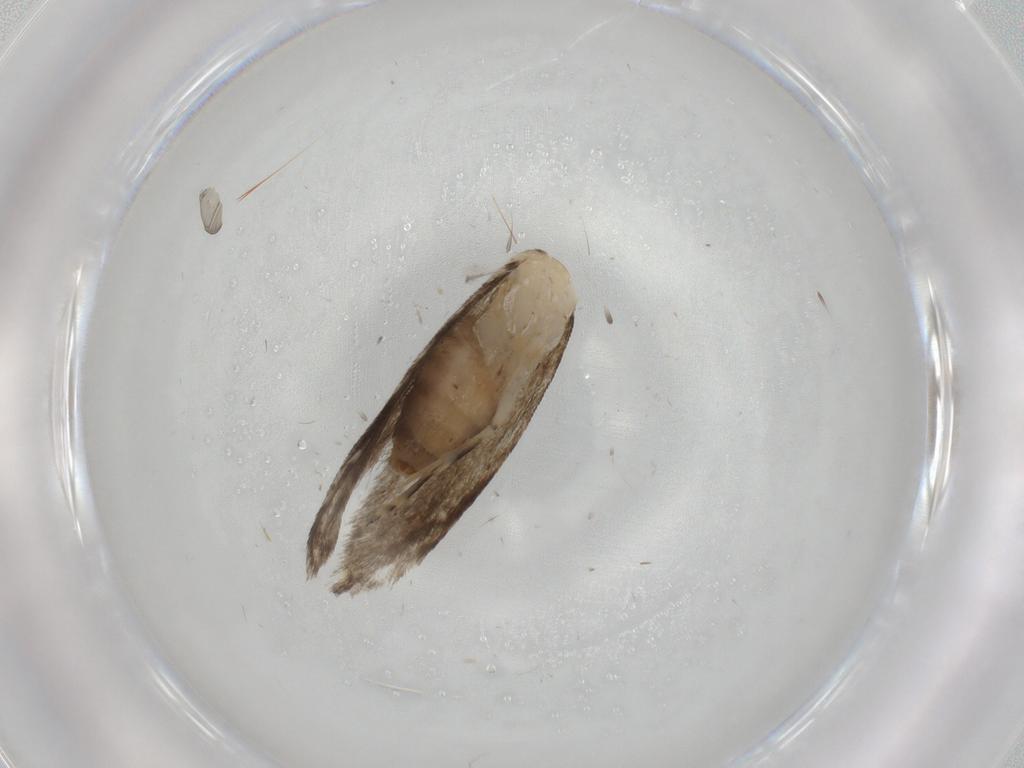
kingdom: Animalia
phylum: Arthropoda
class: Insecta
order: Lepidoptera
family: Tineidae
